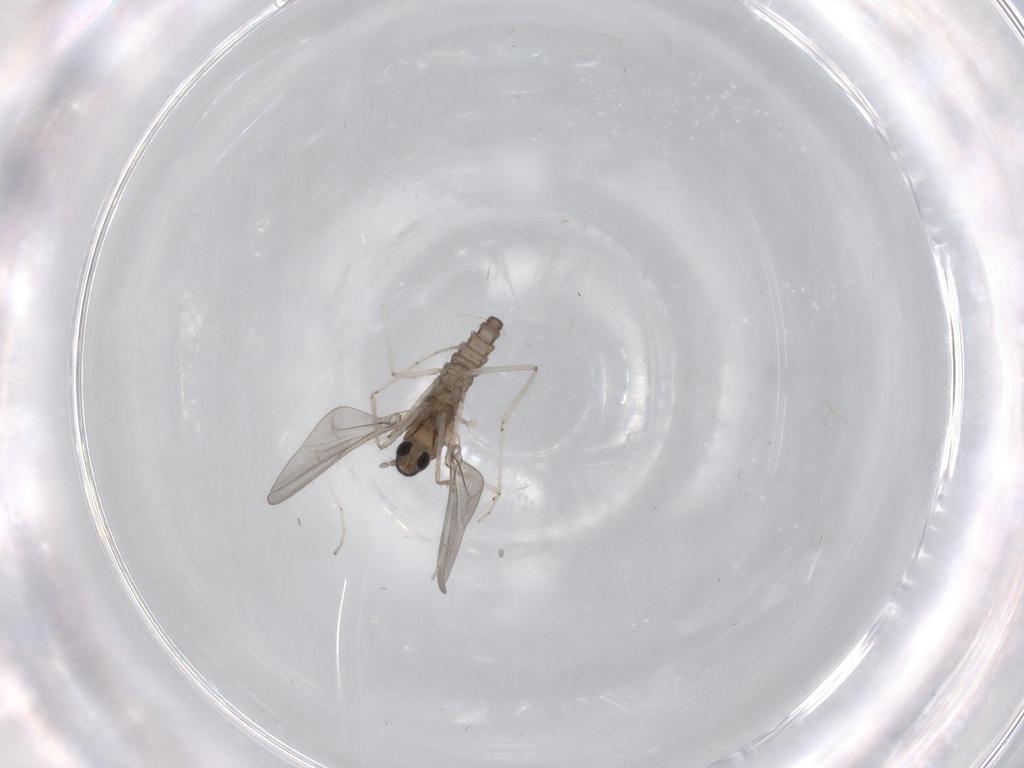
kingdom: Animalia
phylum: Arthropoda
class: Insecta
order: Diptera
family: Cecidomyiidae
